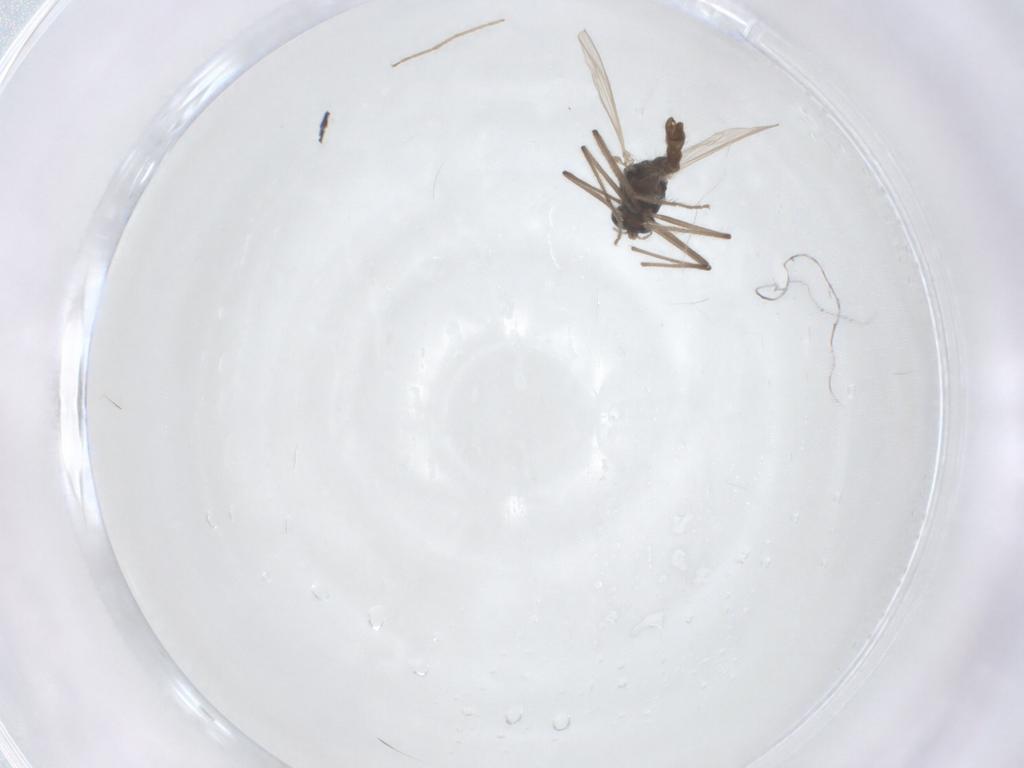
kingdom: Animalia
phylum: Arthropoda
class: Insecta
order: Diptera
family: Chironomidae
